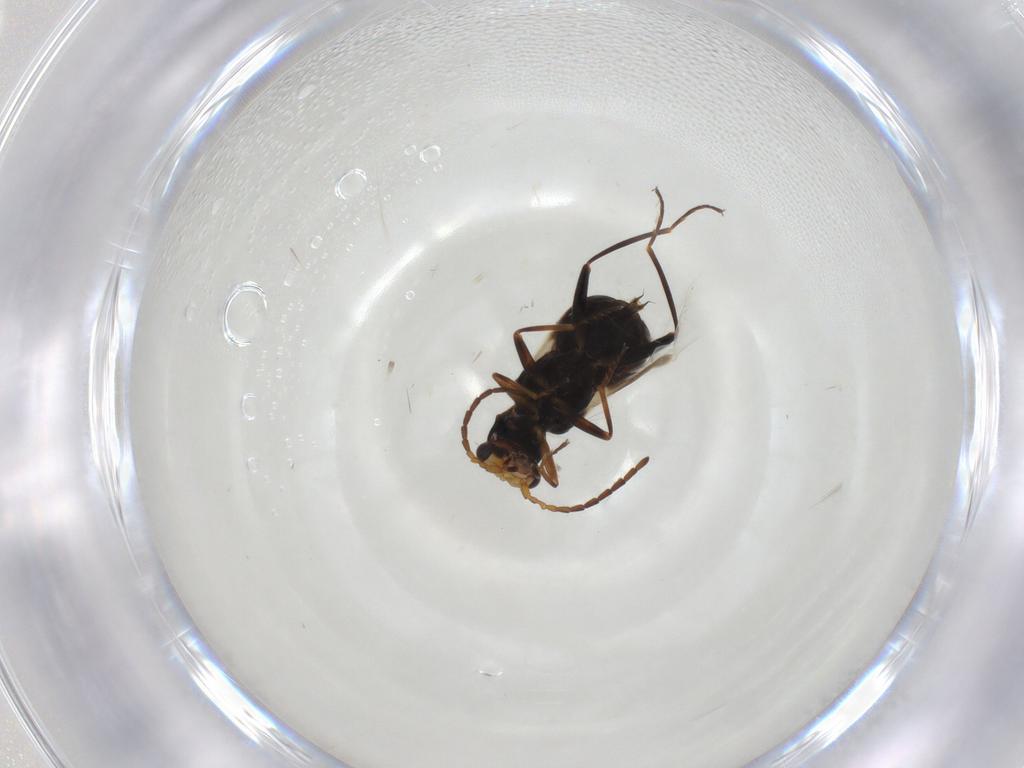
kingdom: Animalia
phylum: Arthropoda
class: Insecta
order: Coleoptera
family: Melyridae
